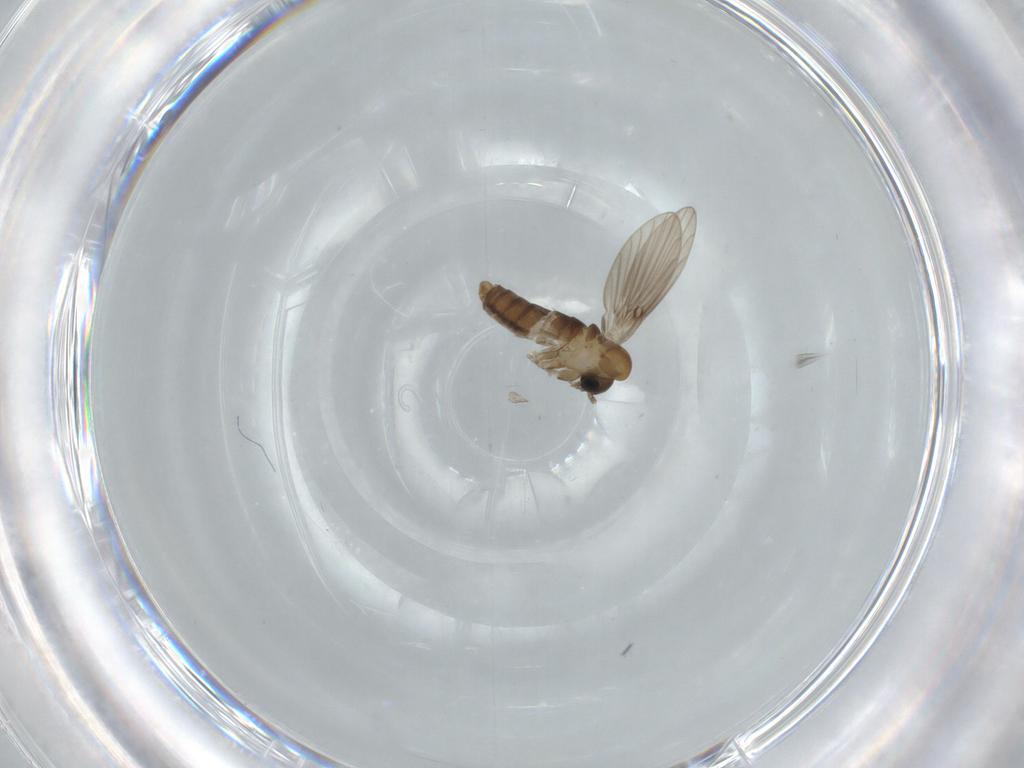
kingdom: Animalia
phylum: Arthropoda
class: Insecta
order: Diptera
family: Psychodidae
